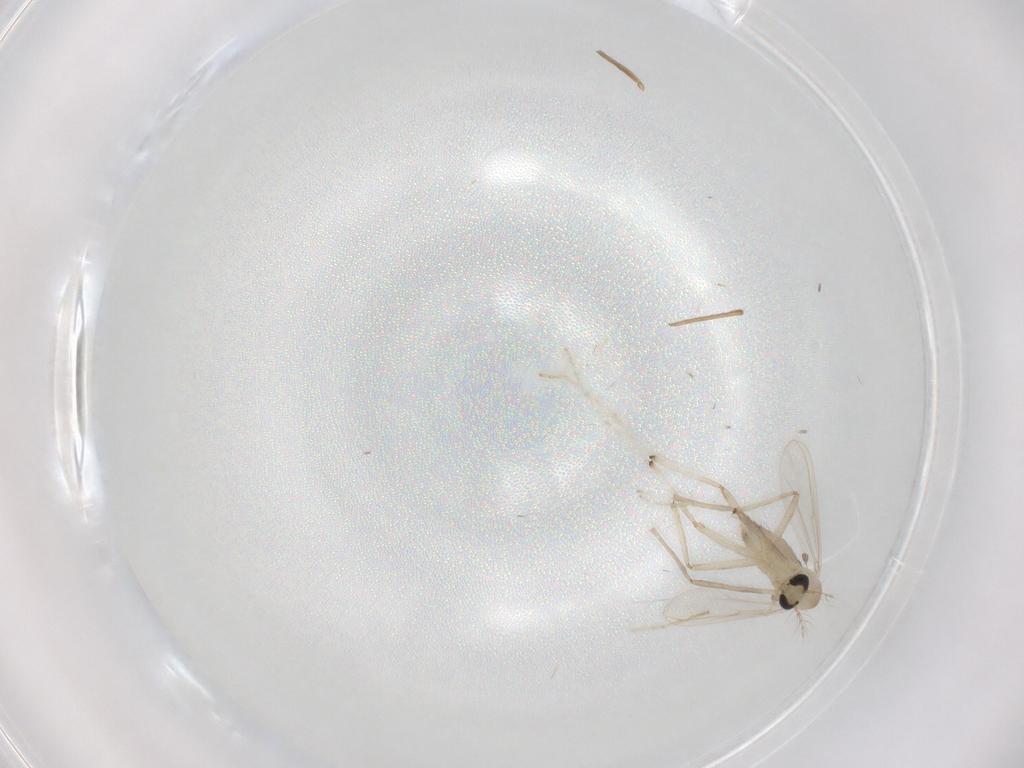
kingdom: Animalia
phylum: Arthropoda
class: Insecta
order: Diptera
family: Chironomidae
